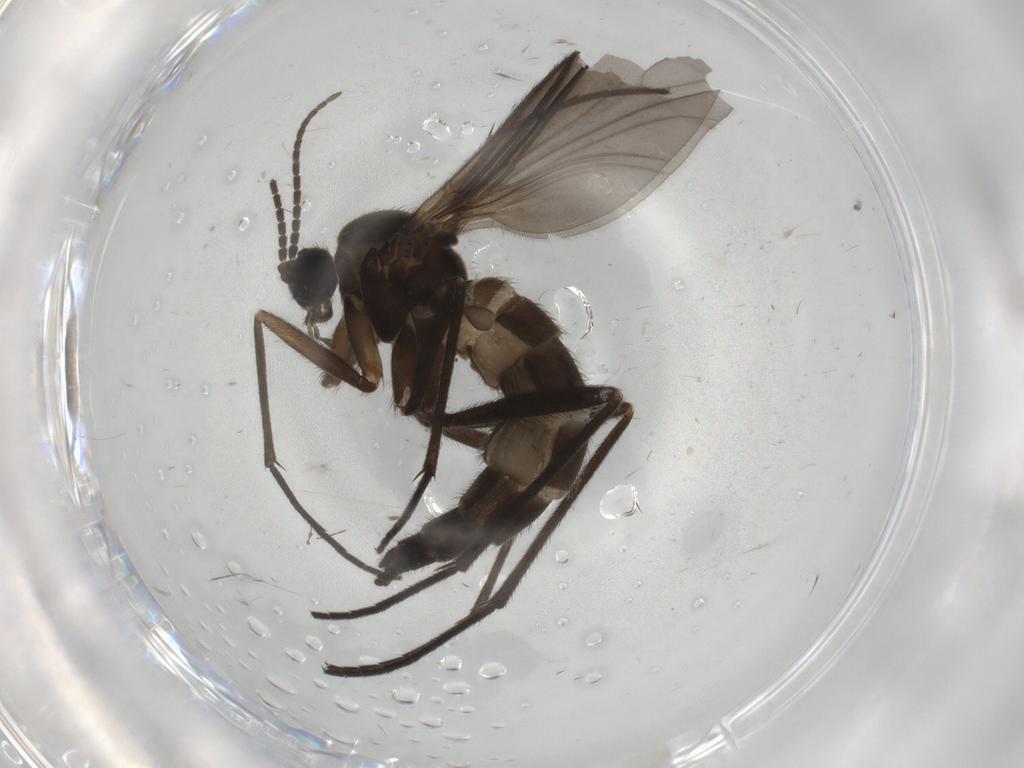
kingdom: Animalia
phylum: Arthropoda
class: Insecta
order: Diptera
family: Sciaridae
